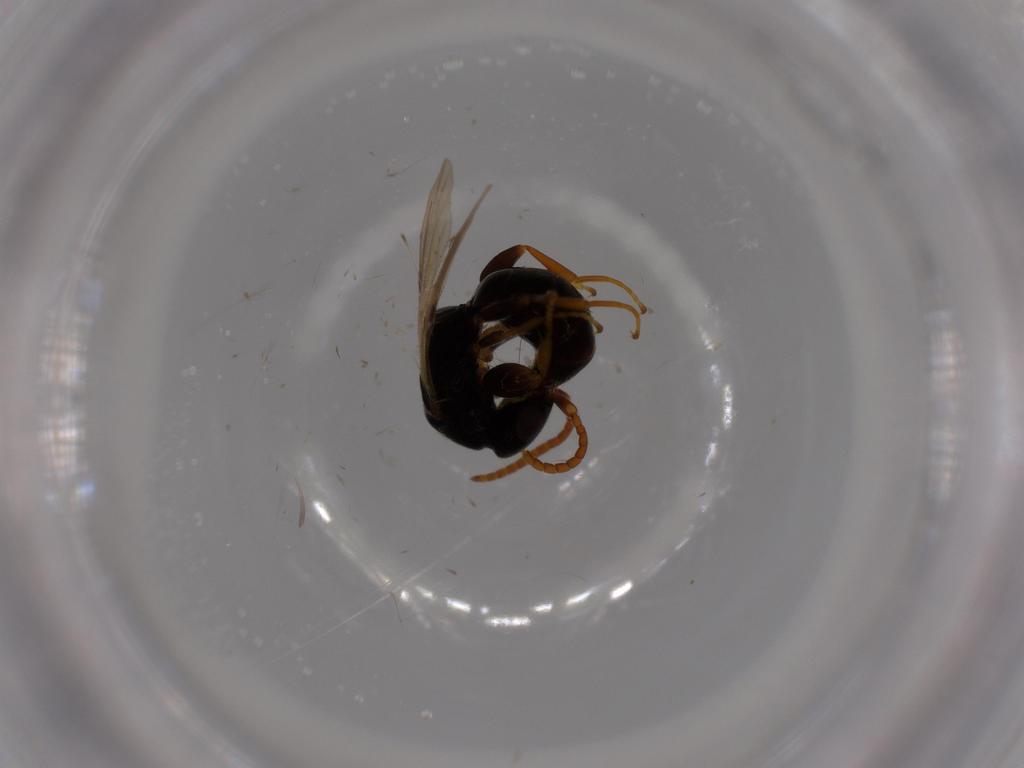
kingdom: Animalia
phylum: Arthropoda
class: Insecta
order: Hymenoptera
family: Bethylidae
